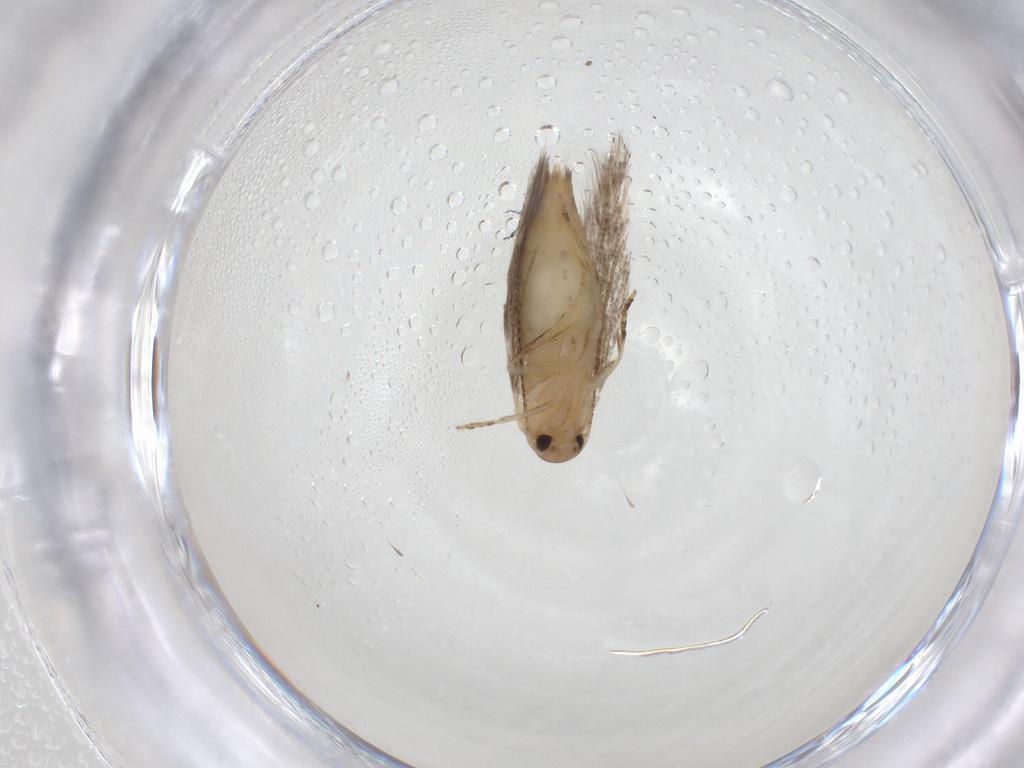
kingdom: Animalia
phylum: Arthropoda
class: Insecta
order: Lepidoptera
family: Elachistidae
